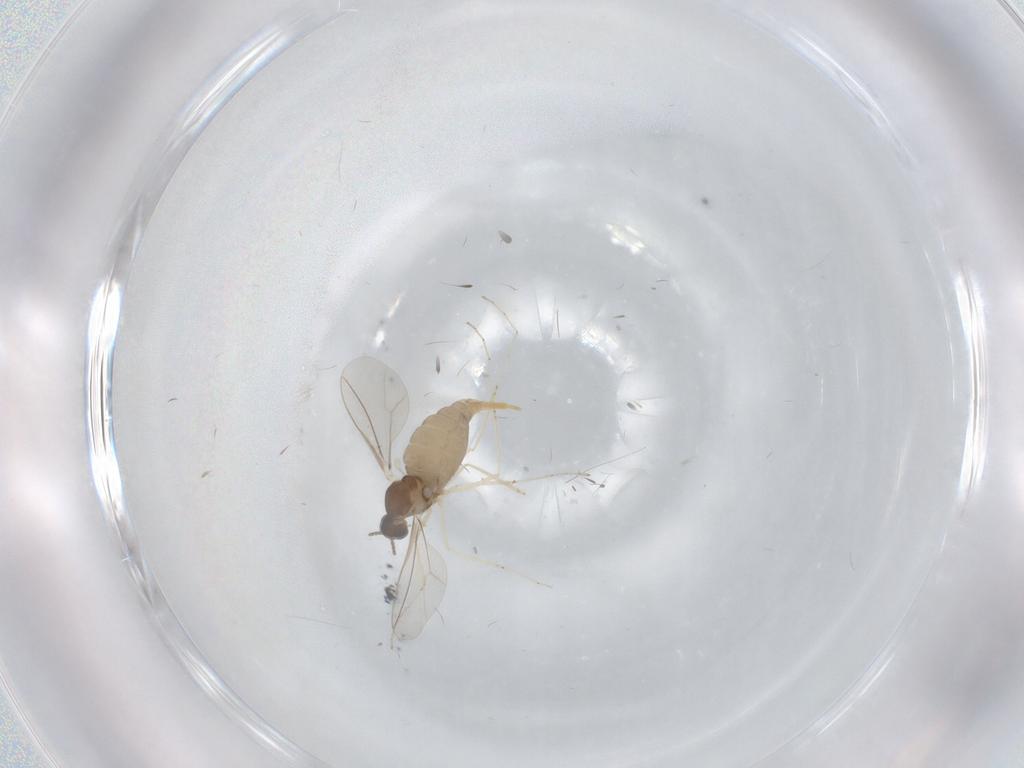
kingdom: Animalia
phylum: Arthropoda
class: Insecta
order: Diptera
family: Cecidomyiidae
